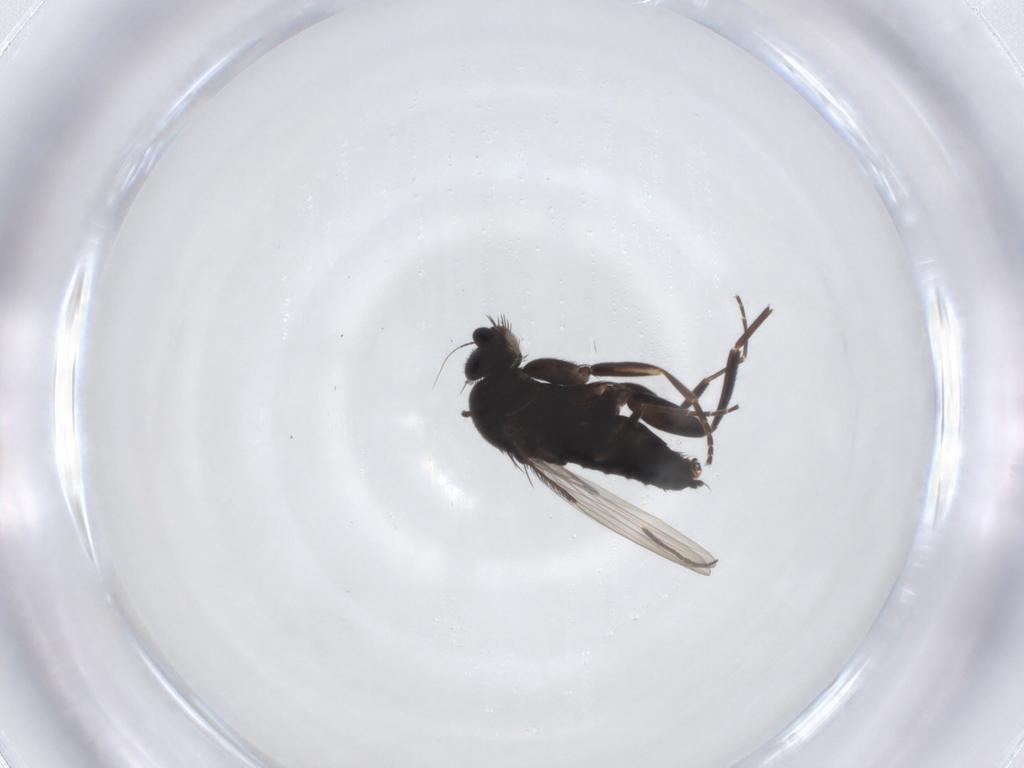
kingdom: Animalia
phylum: Arthropoda
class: Insecta
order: Diptera
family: Phoridae
